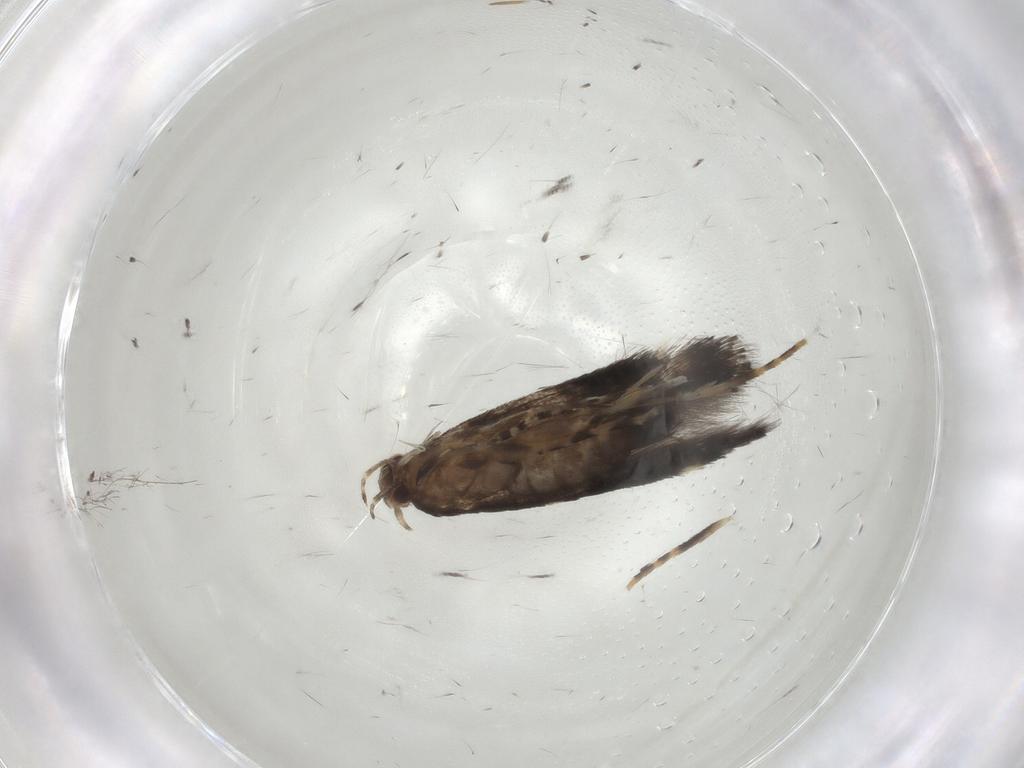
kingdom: Animalia
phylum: Arthropoda
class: Insecta
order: Lepidoptera
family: Elachistidae
